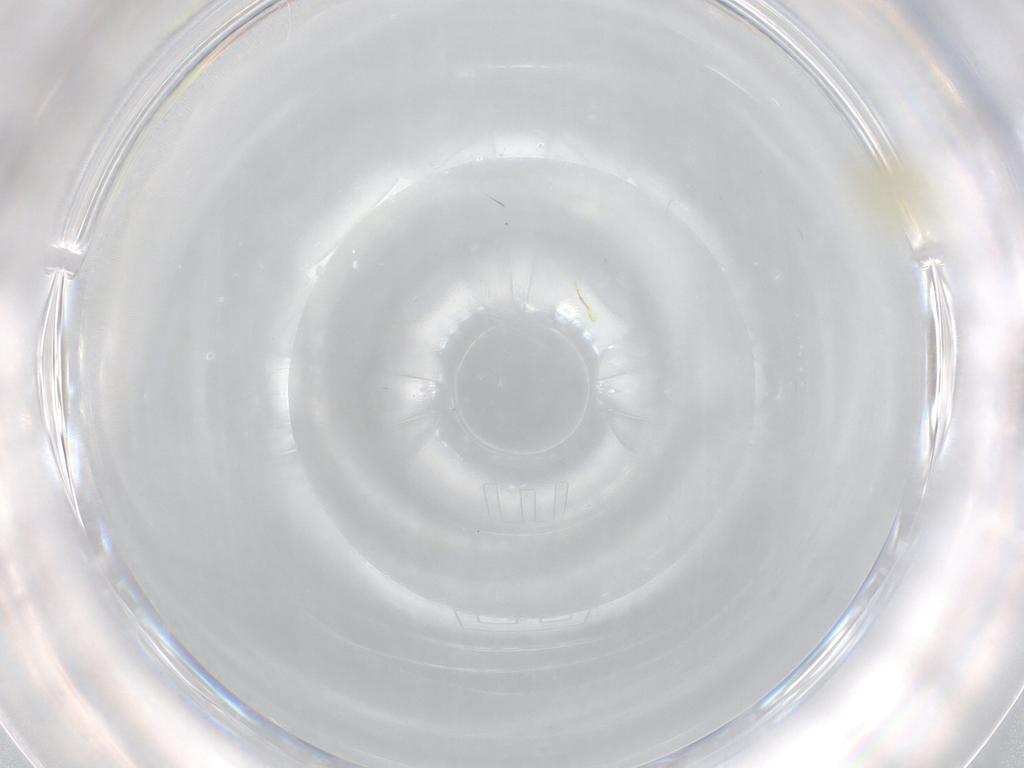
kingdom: Animalia
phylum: Arthropoda
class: Insecta
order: Hemiptera
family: Aleyrodidae
